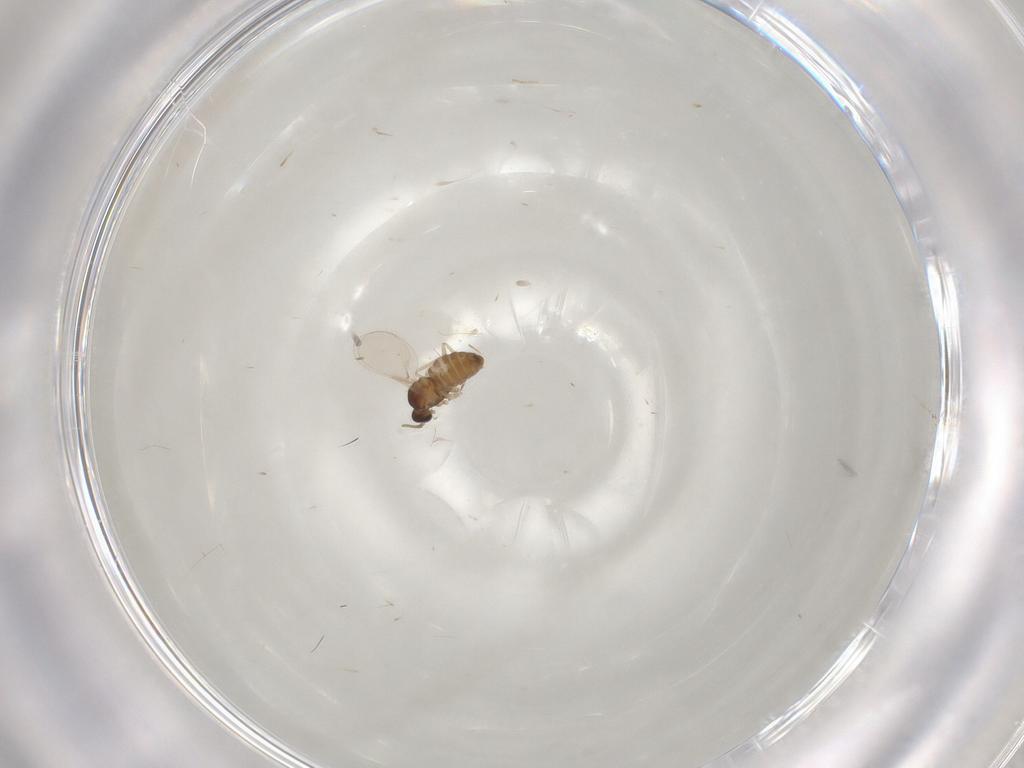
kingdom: Animalia
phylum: Arthropoda
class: Insecta
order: Diptera
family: Cecidomyiidae
